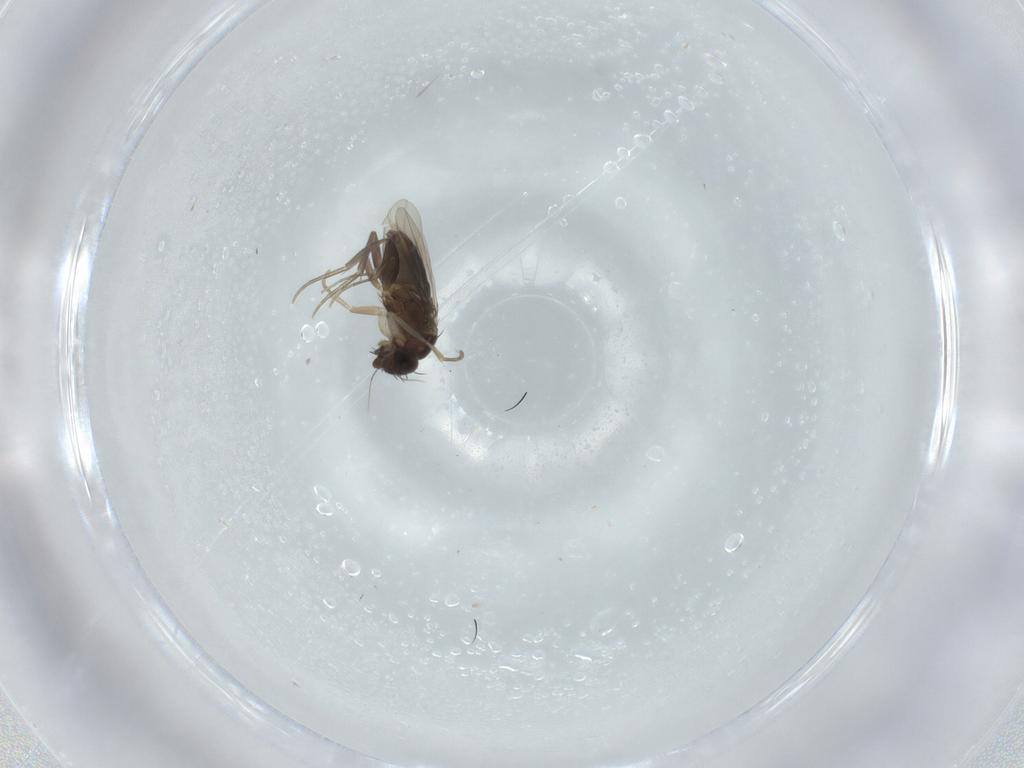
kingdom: Animalia
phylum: Arthropoda
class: Insecta
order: Diptera
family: Phoridae
